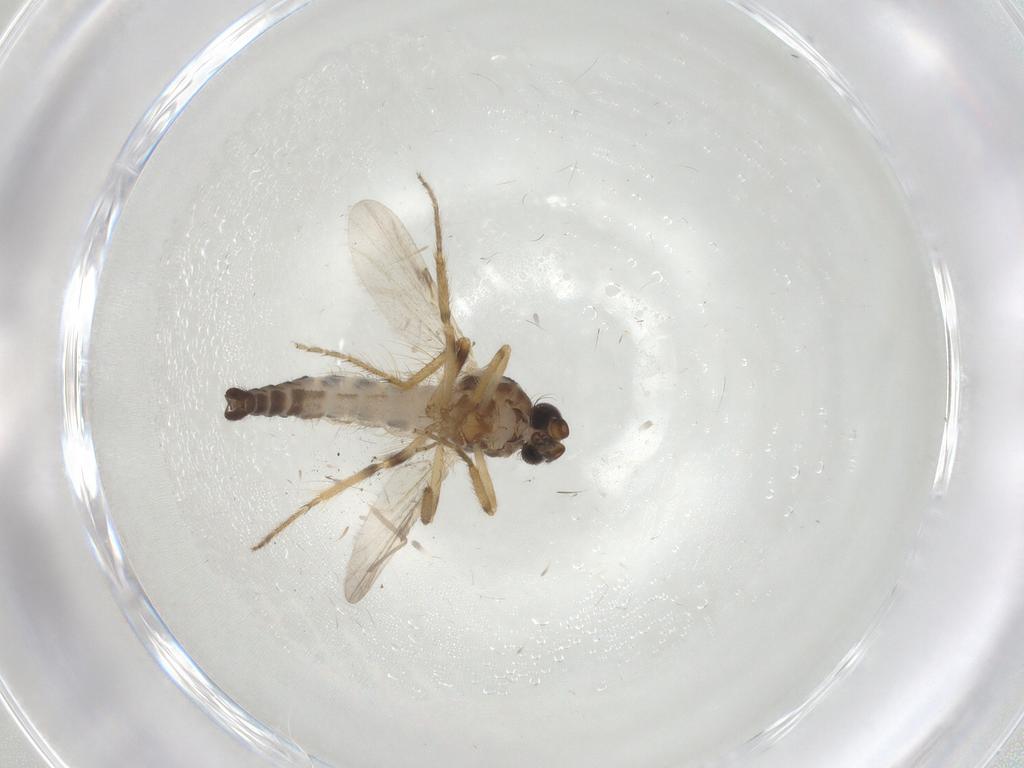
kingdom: Animalia
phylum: Arthropoda
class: Insecta
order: Diptera
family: Ceratopogonidae
